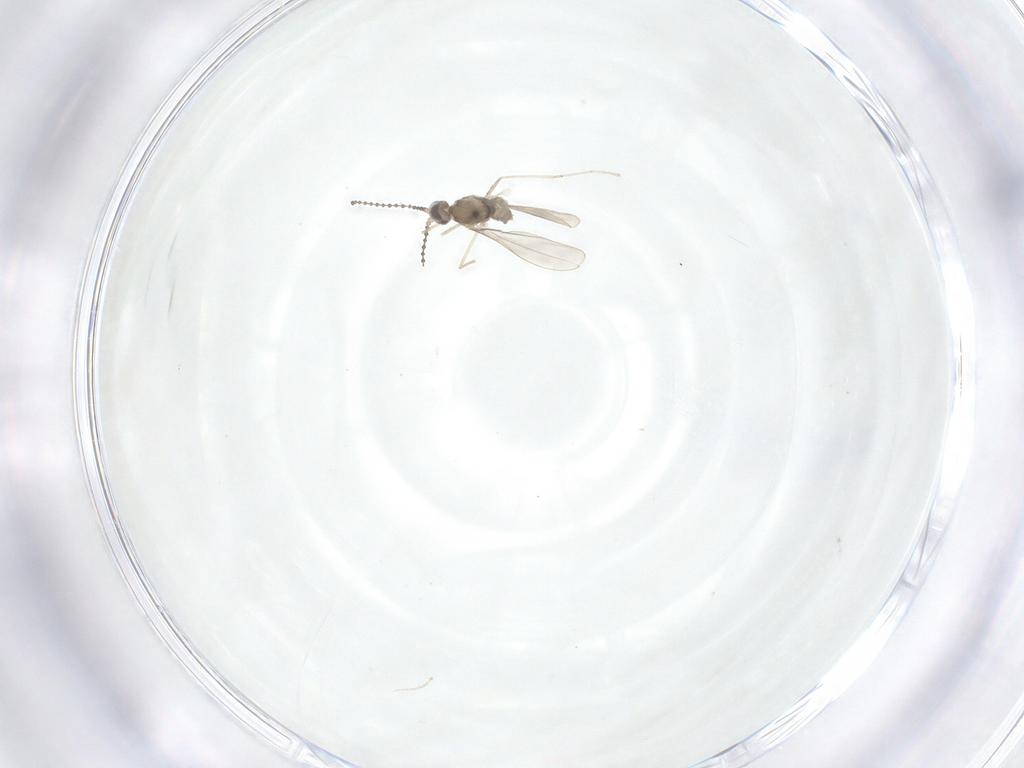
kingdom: Animalia
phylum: Arthropoda
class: Insecta
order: Diptera
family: Cecidomyiidae
